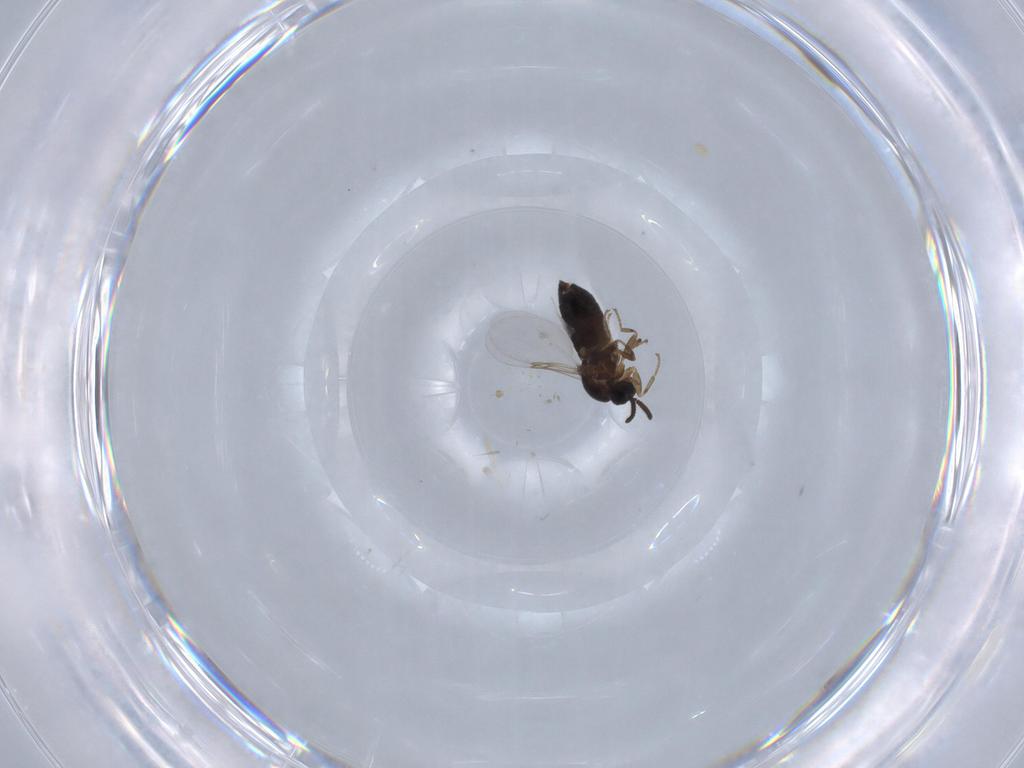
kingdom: Animalia
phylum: Arthropoda
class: Insecta
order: Diptera
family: Scatopsidae
